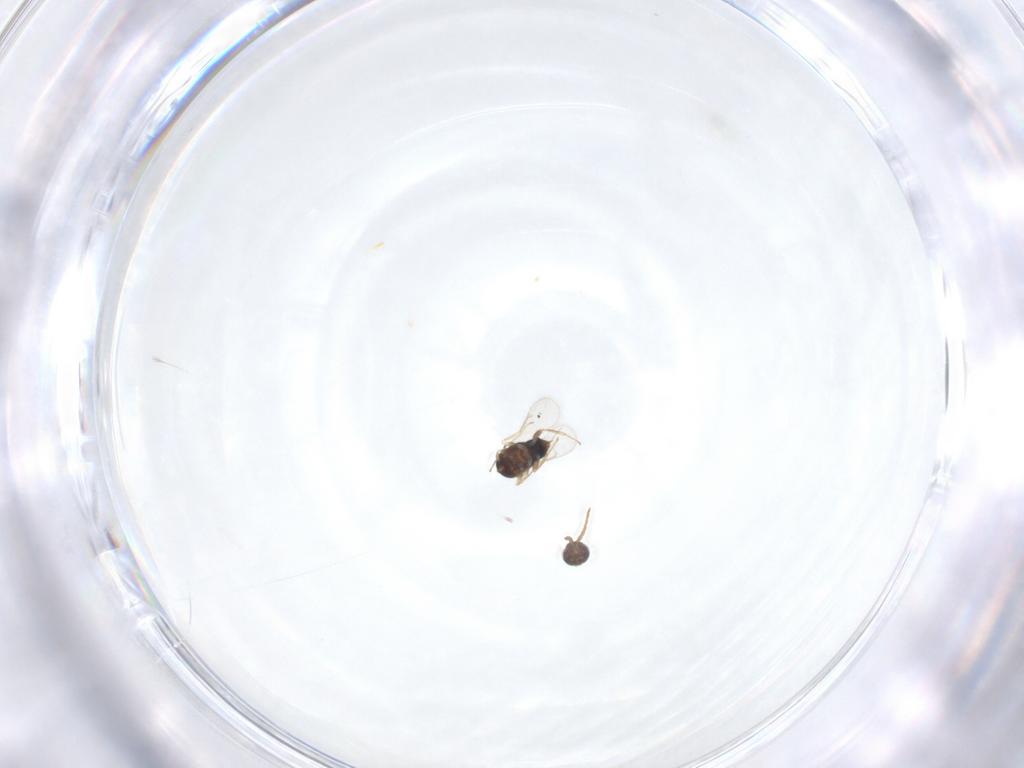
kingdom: Animalia
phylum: Arthropoda
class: Insecta
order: Hymenoptera
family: Aphelinidae
